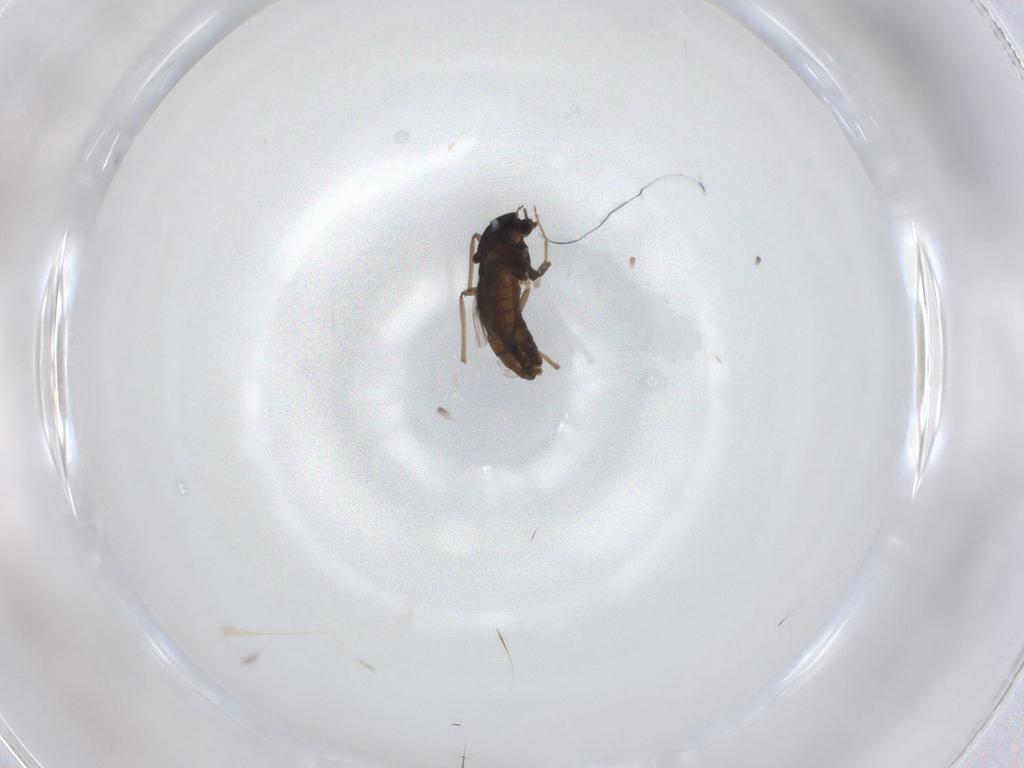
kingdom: Animalia
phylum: Arthropoda
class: Insecta
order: Diptera
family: Chironomidae
